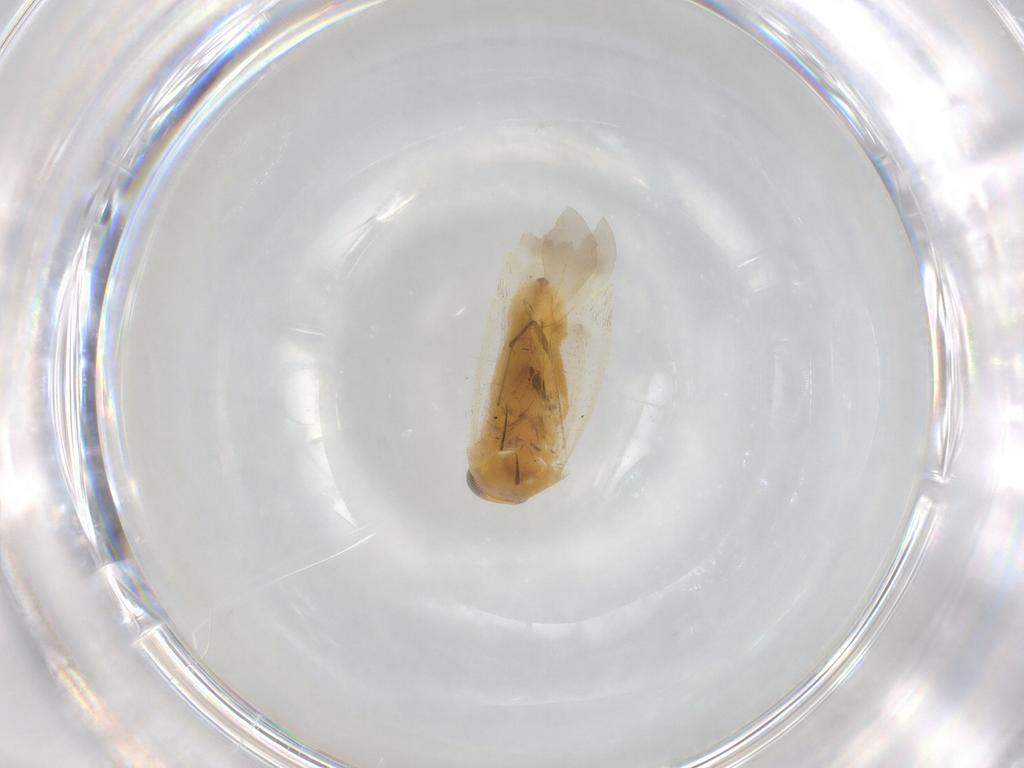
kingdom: Animalia
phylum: Arthropoda
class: Insecta
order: Hemiptera
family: Miridae
